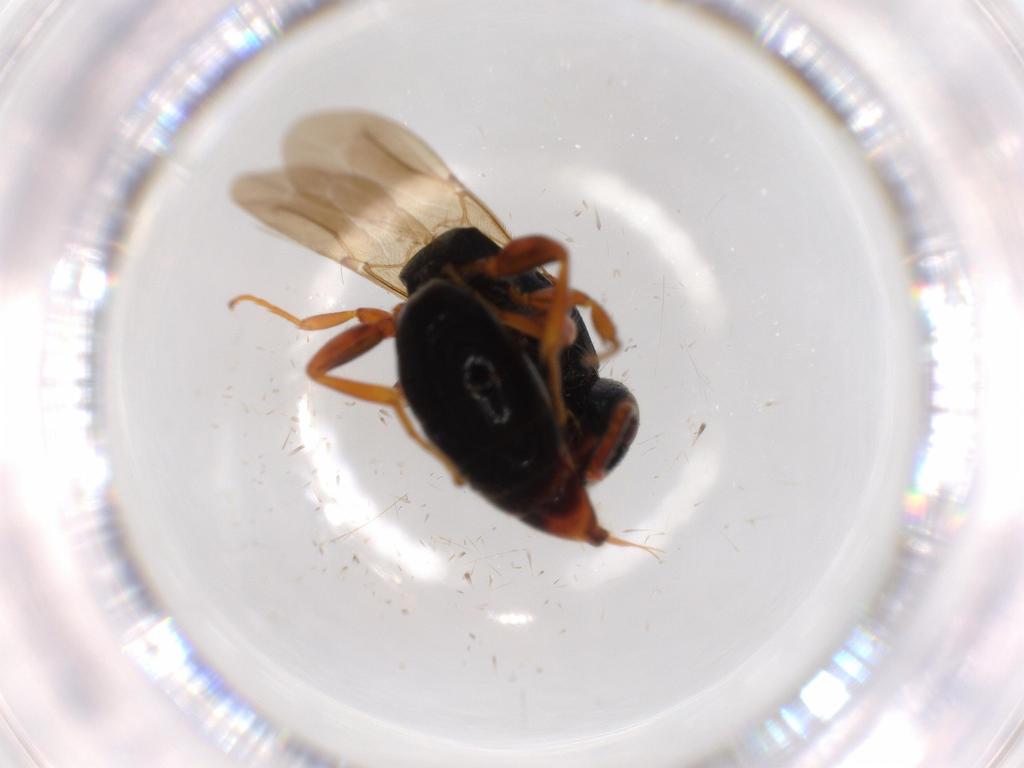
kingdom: Animalia
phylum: Arthropoda
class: Insecta
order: Hymenoptera
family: Bethylidae
